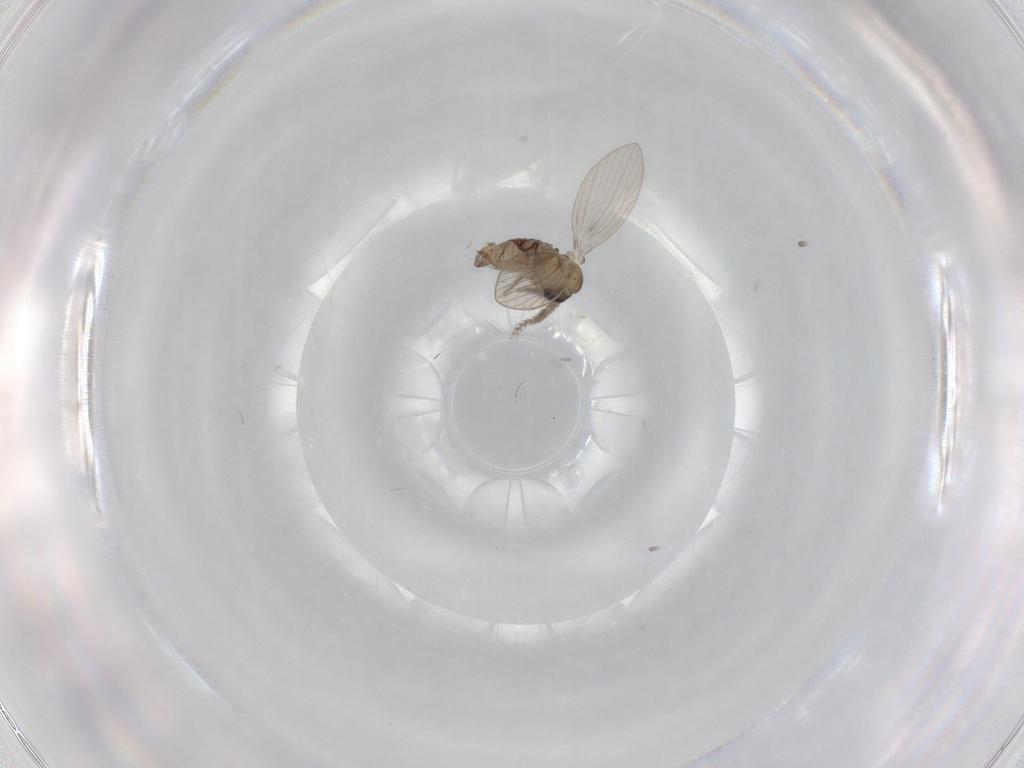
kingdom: Animalia
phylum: Arthropoda
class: Insecta
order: Diptera
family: Psychodidae
